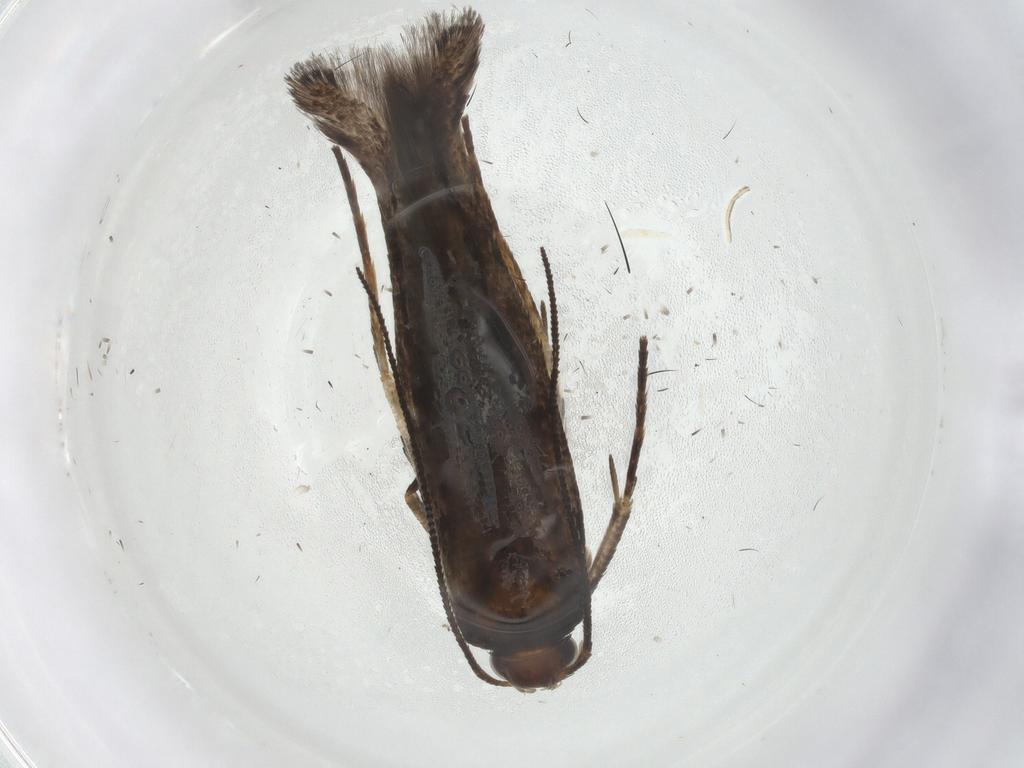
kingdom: Animalia
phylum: Arthropoda
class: Insecta
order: Lepidoptera
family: Gelechiidae
